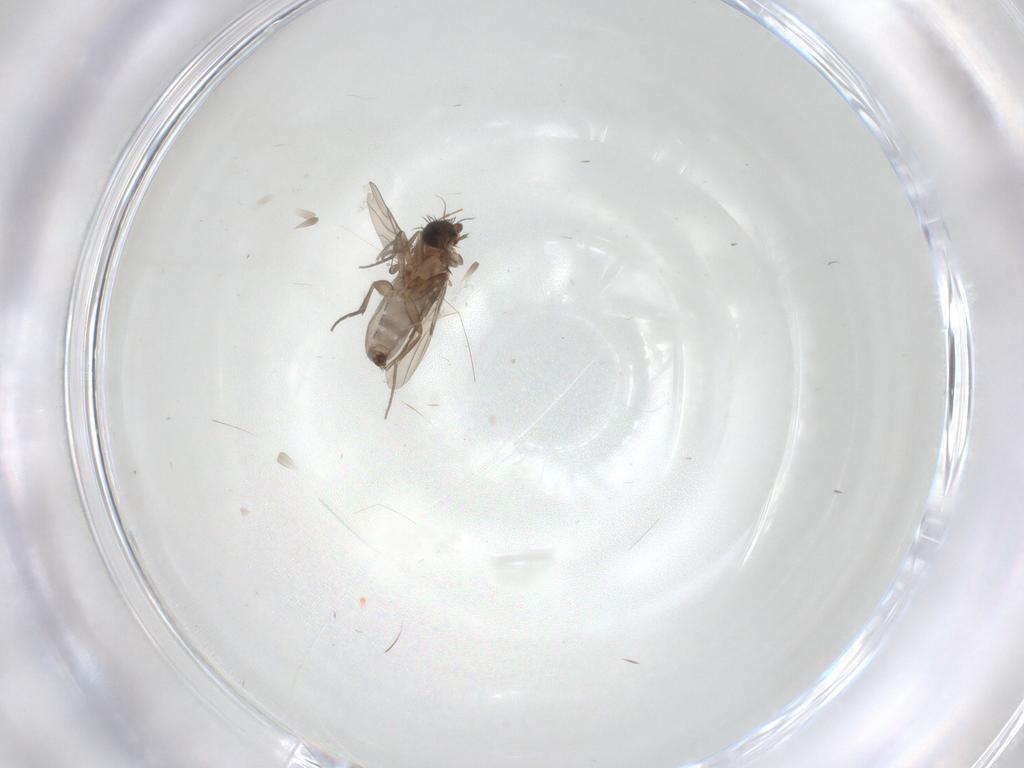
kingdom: Animalia
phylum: Arthropoda
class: Insecta
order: Diptera
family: Phoridae
